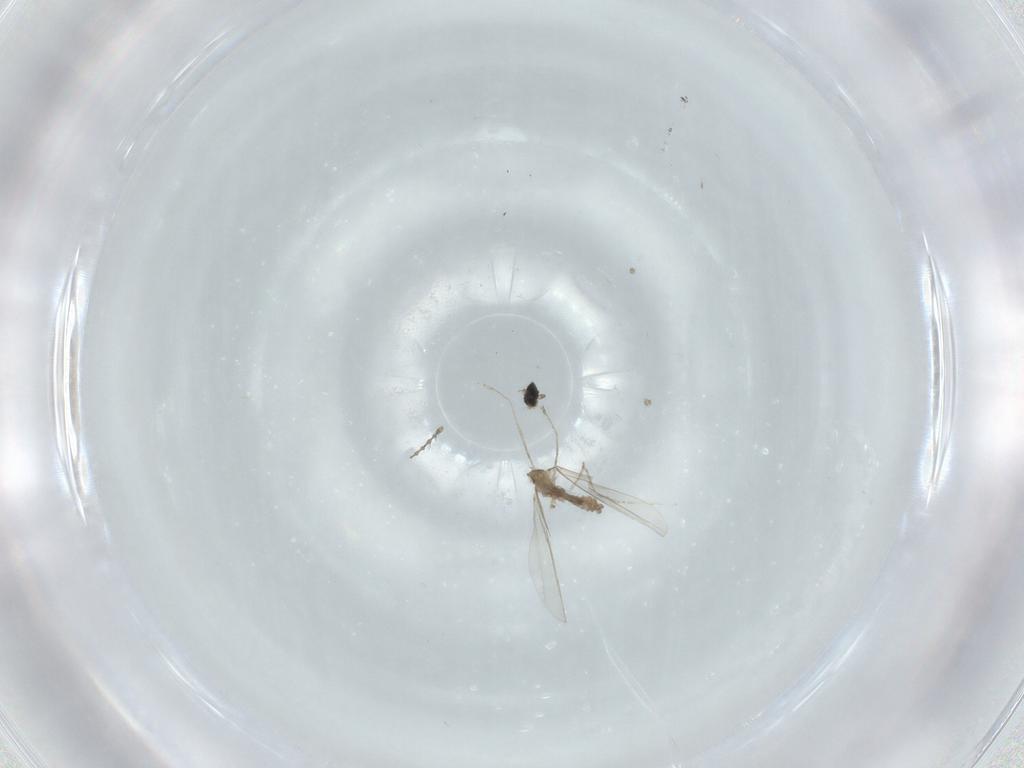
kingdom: Animalia
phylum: Arthropoda
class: Insecta
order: Diptera
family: Cecidomyiidae
